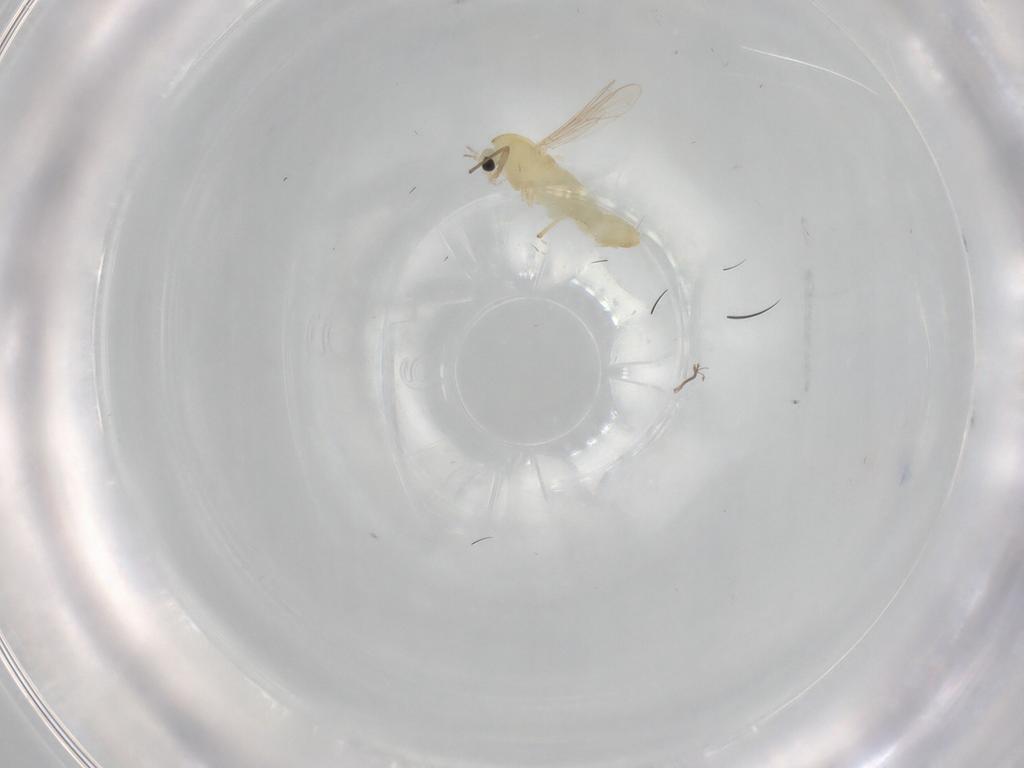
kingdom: Animalia
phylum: Arthropoda
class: Insecta
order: Diptera
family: Chironomidae
